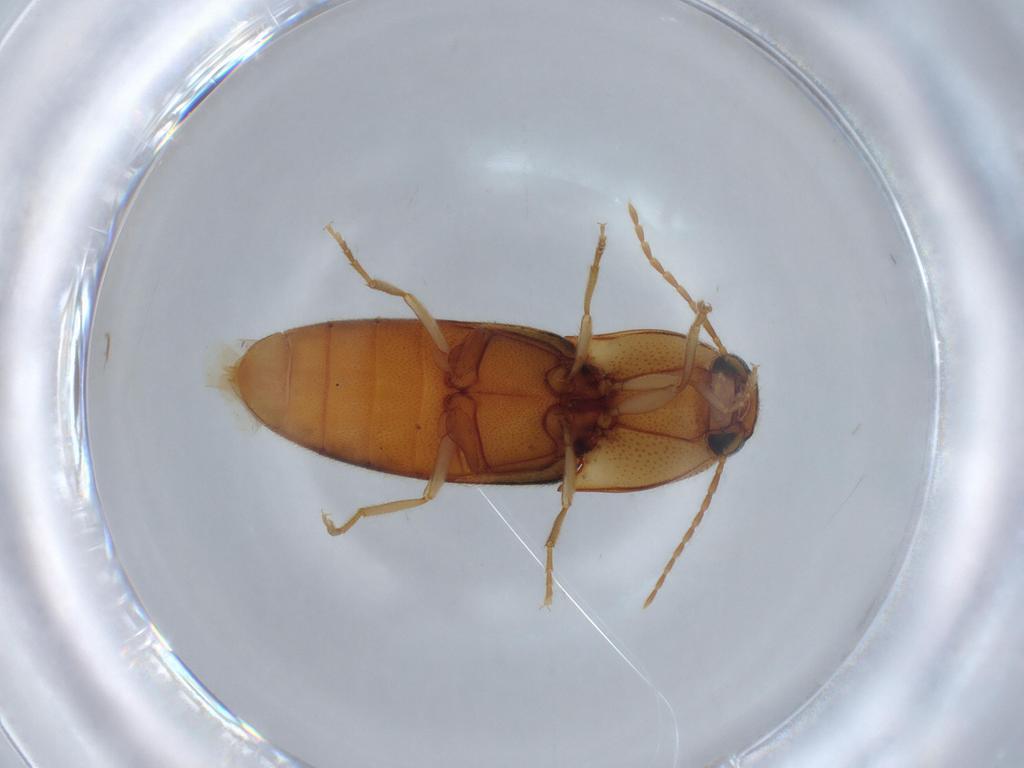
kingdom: Animalia
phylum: Arthropoda
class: Insecta
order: Coleoptera
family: Elateridae
